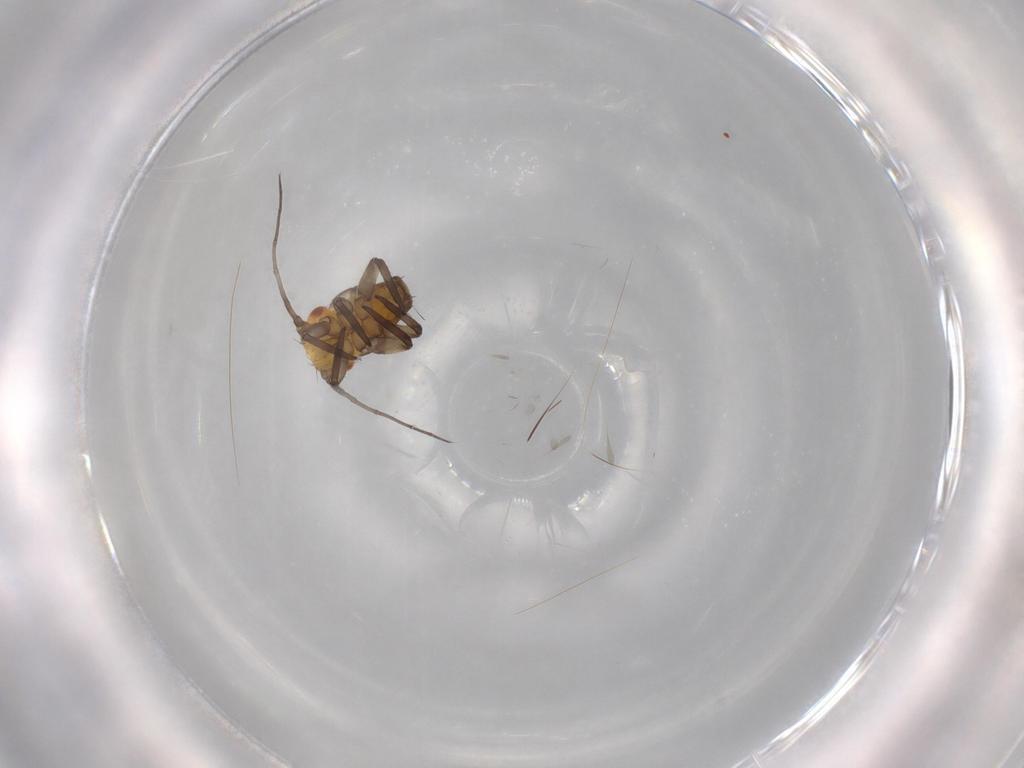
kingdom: Animalia
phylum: Arthropoda
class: Insecta
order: Hemiptera
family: Psyllidae
